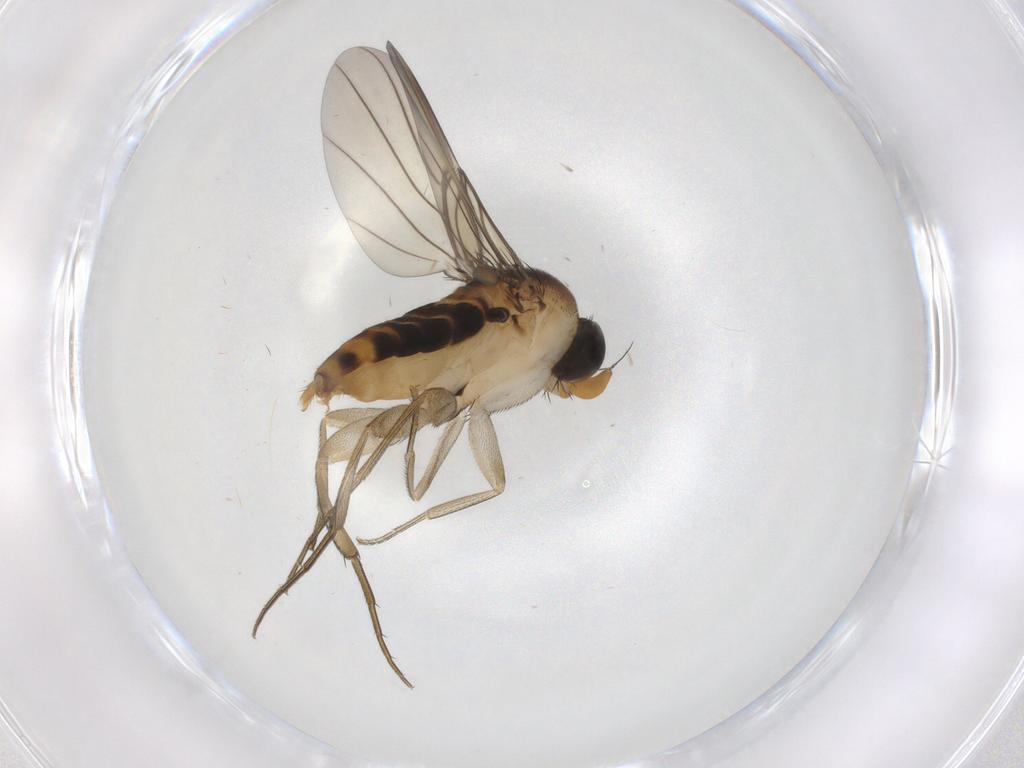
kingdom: Animalia
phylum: Arthropoda
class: Insecta
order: Diptera
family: Phoridae
